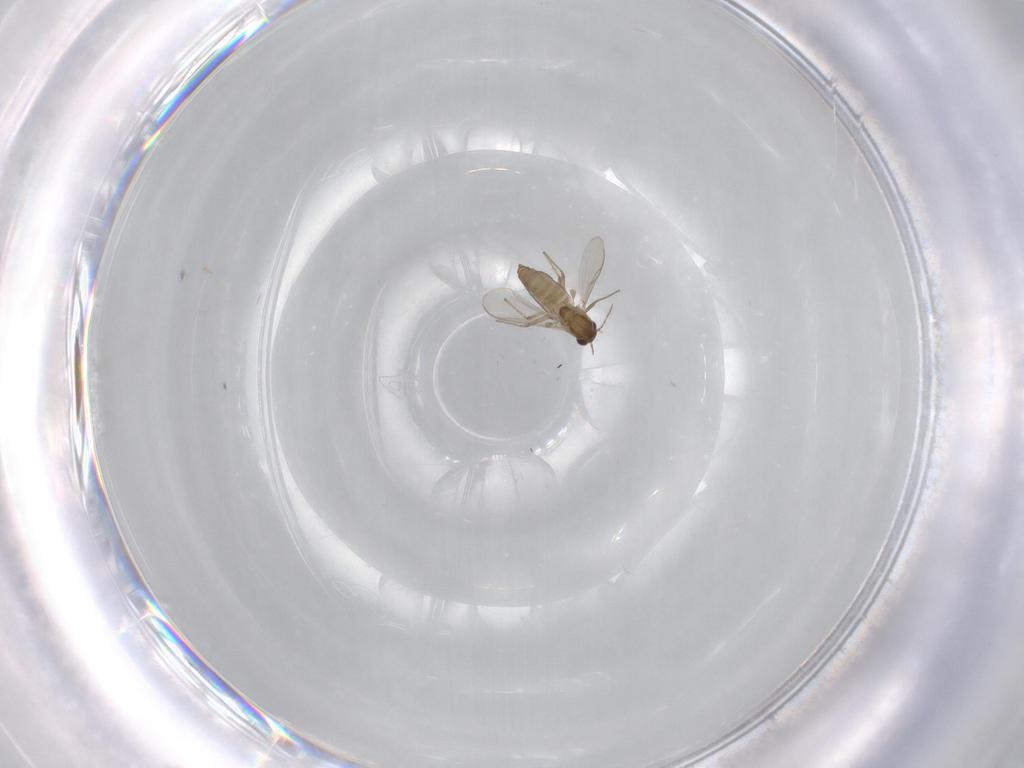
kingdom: Animalia
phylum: Arthropoda
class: Insecta
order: Diptera
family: Chironomidae
